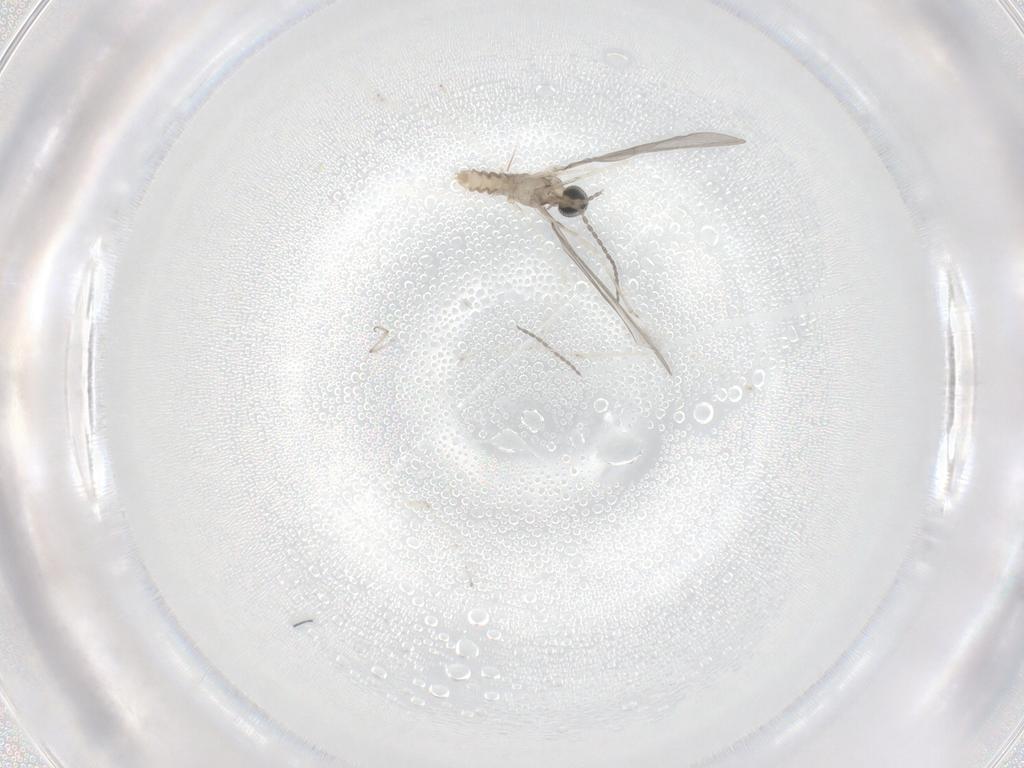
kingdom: Animalia
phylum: Arthropoda
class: Insecta
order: Diptera
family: Cecidomyiidae
